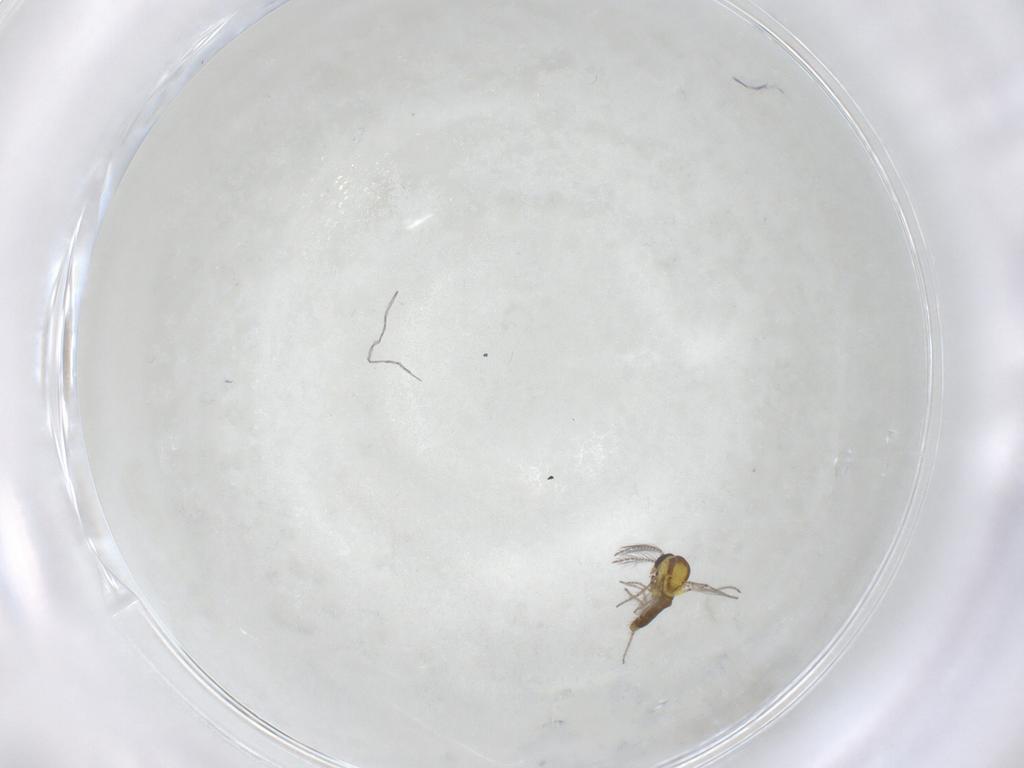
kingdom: Animalia
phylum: Arthropoda
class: Insecta
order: Diptera
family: Ceratopogonidae
